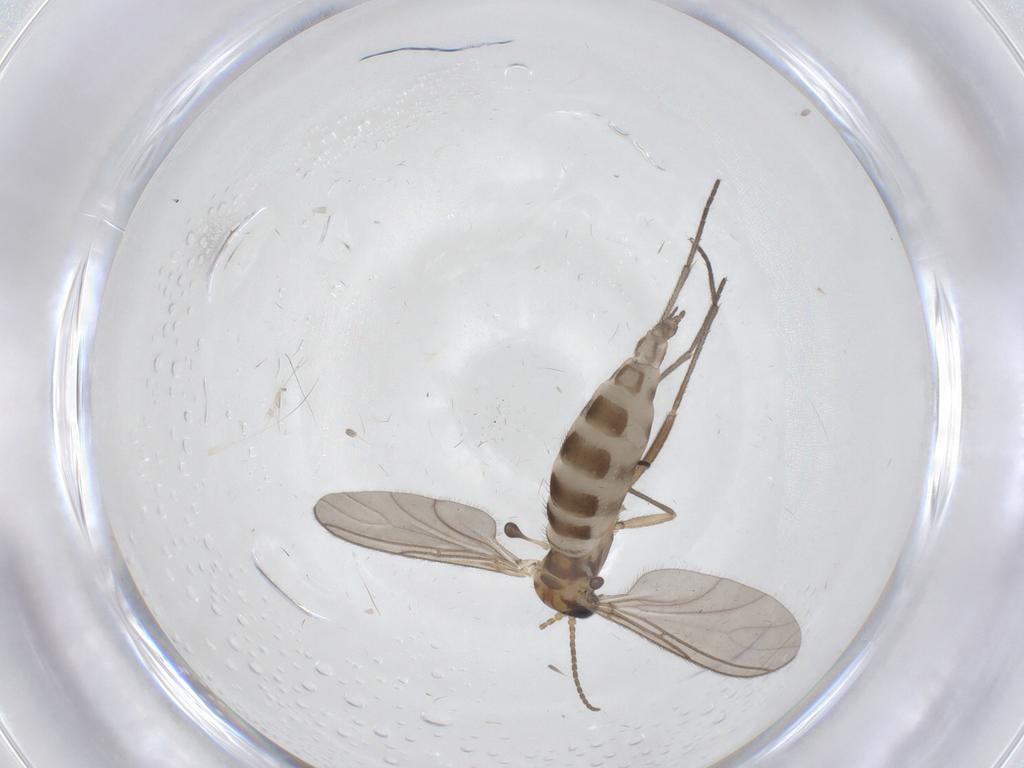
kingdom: Animalia
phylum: Arthropoda
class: Insecta
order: Diptera
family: Sciaridae
